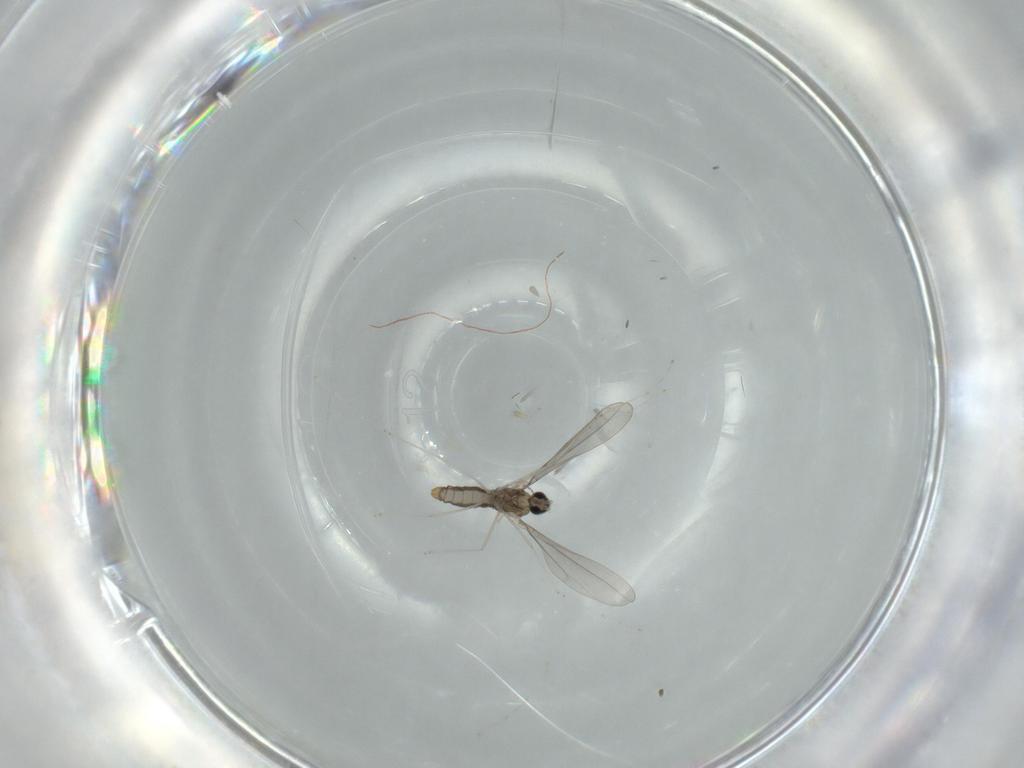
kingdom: Animalia
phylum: Arthropoda
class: Insecta
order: Diptera
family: Cecidomyiidae
